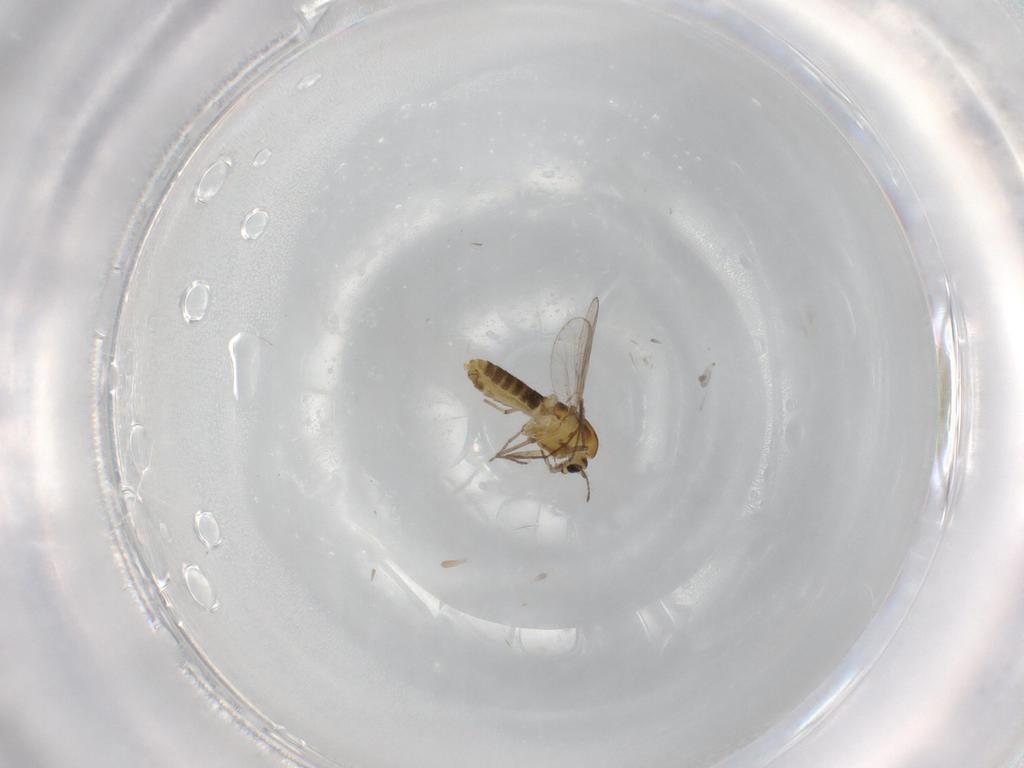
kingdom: Animalia
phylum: Arthropoda
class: Insecta
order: Diptera
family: Chironomidae
